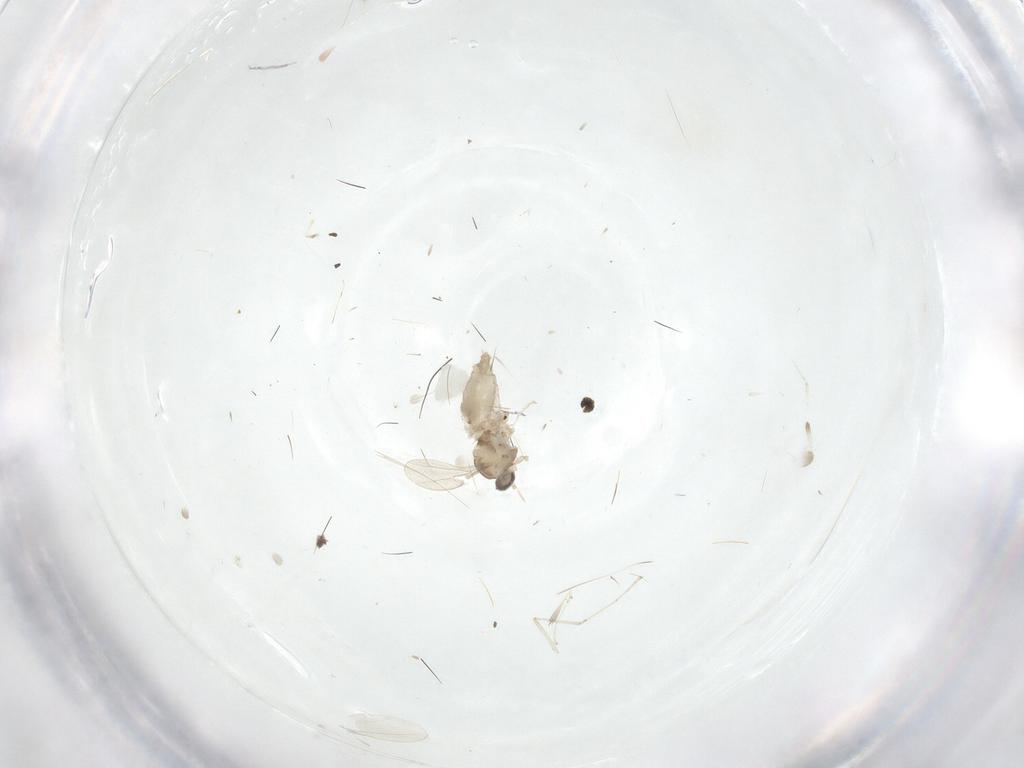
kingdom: Animalia
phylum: Arthropoda
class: Insecta
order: Diptera
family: Cecidomyiidae
